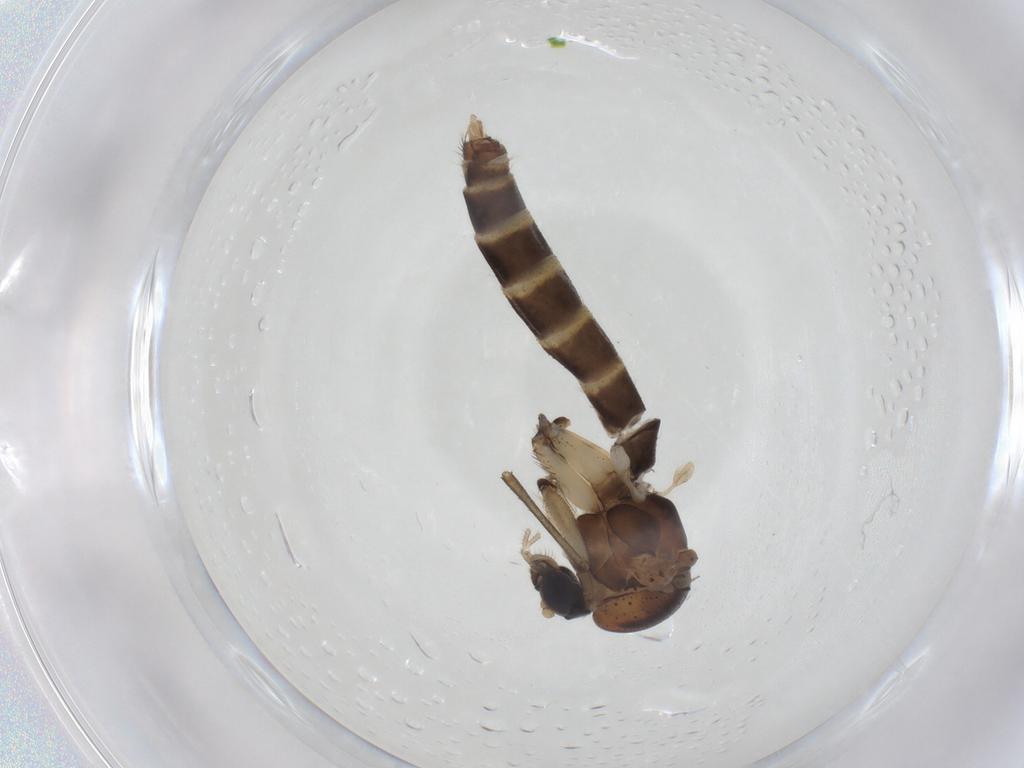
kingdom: Animalia
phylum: Arthropoda
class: Insecta
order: Diptera
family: Mycetophilidae
